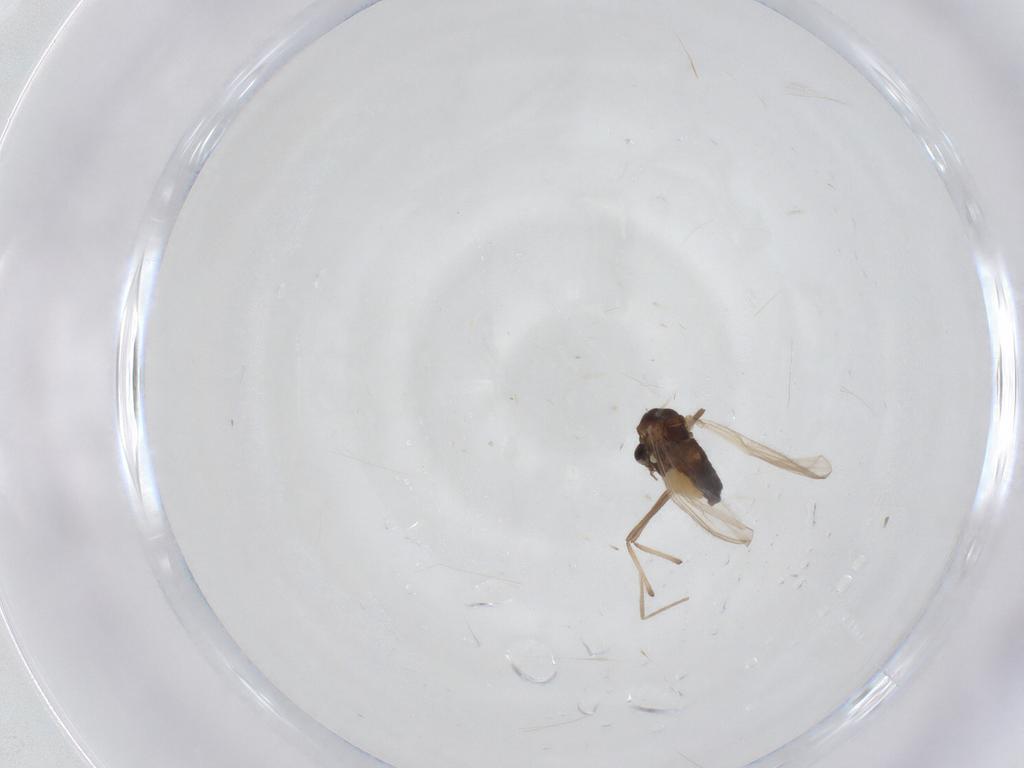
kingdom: Animalia
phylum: Arthropoda
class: Insecta
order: Diptera
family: Chironomidae
